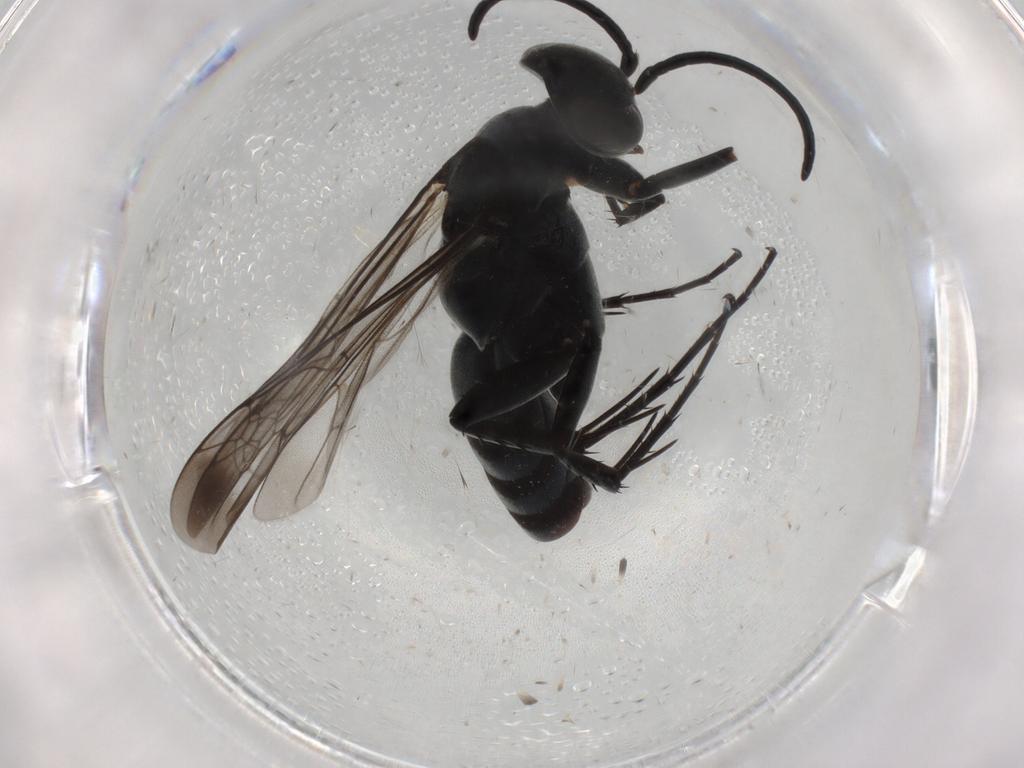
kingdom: Animalia
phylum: Arthropoda
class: Insecta
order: Hymenoptera
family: Pompilidae
